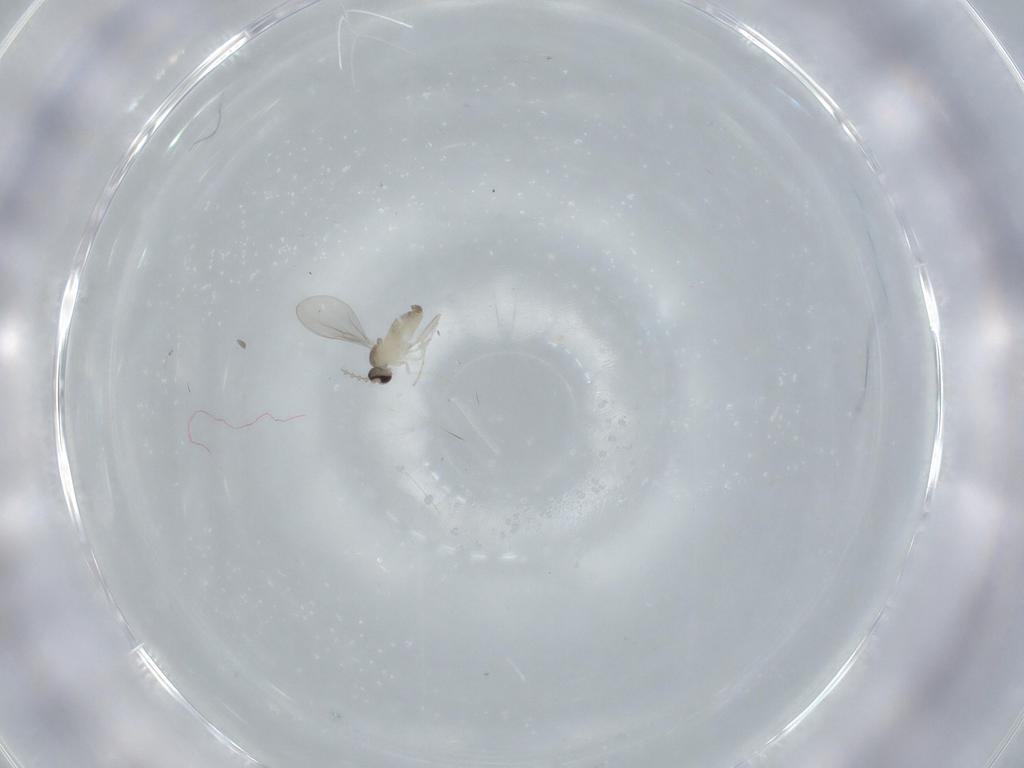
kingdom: Animalia
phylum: Arthropoda
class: Insecta
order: Diptera
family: Cecidomyiidae
